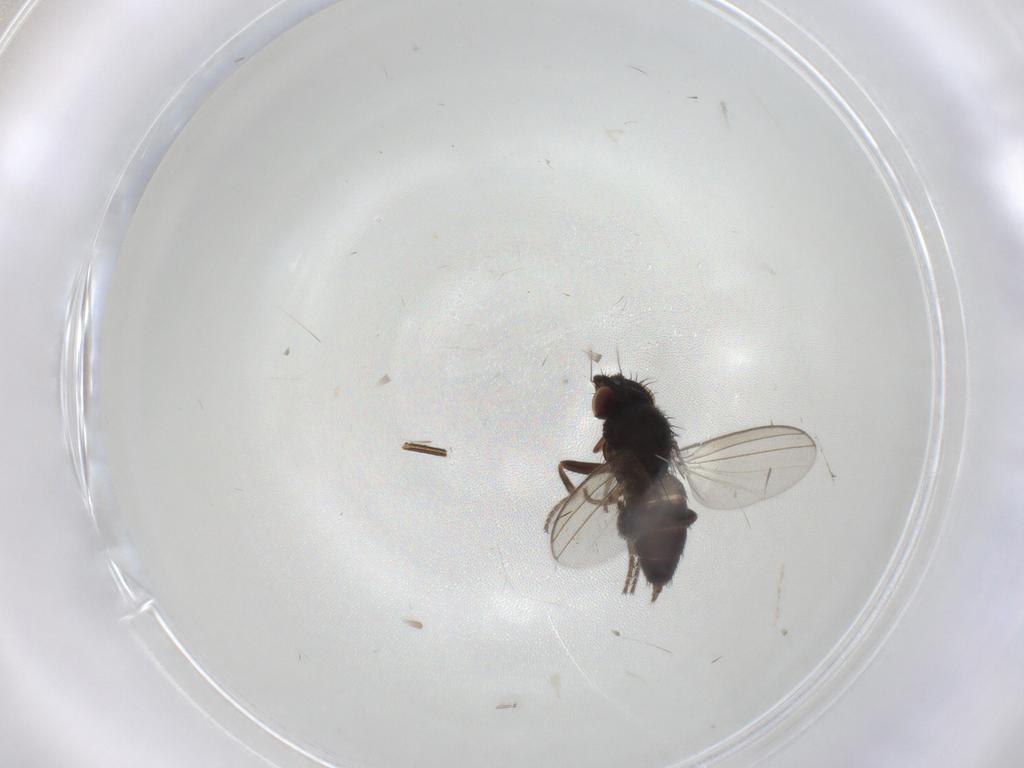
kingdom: Animalia
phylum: Arthropoda
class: Insecta
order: Diptera
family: Milichiidae
